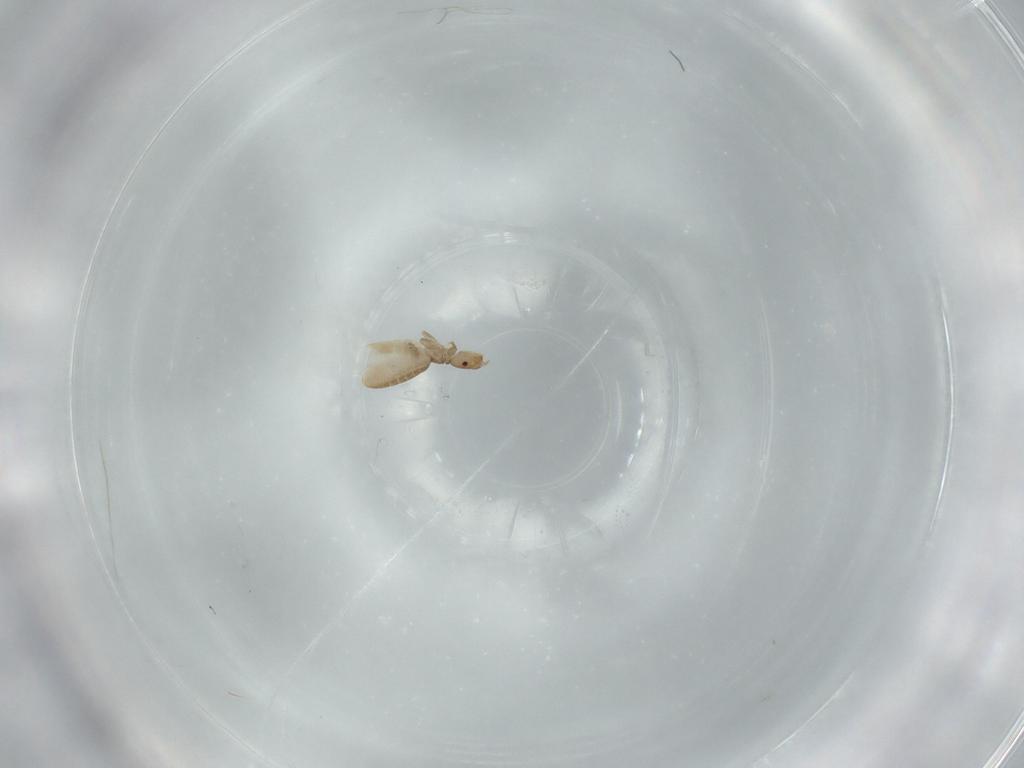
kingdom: Animalia
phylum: Arthropoda
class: Insecta
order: Psocodea
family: Liposcelididae
